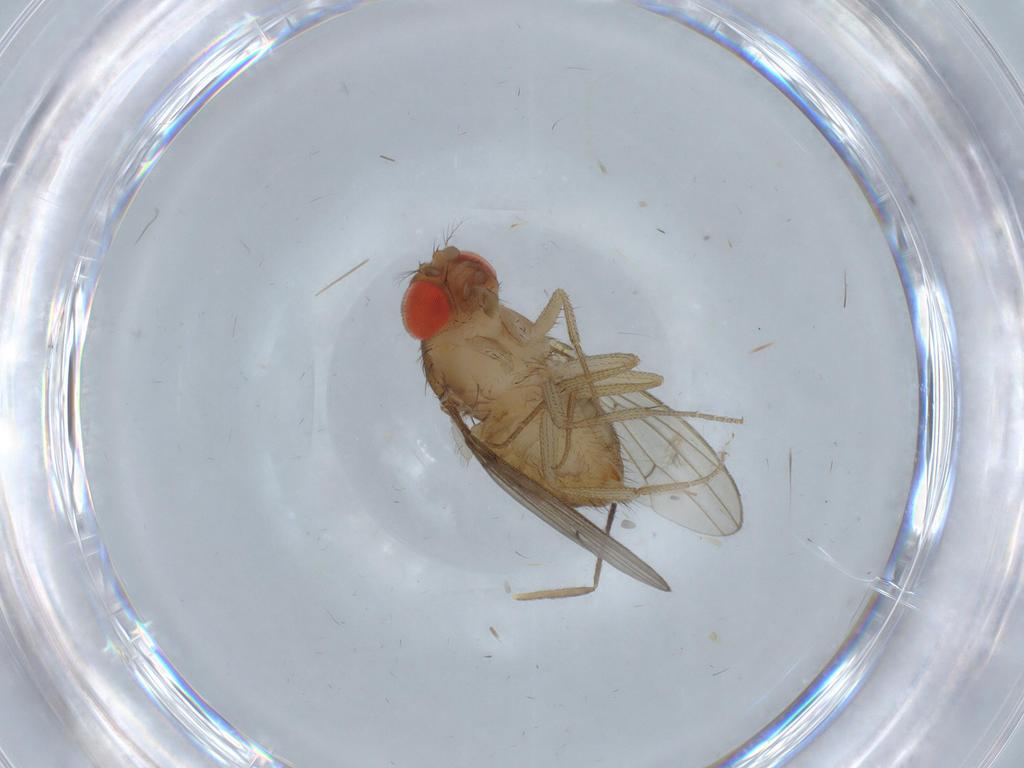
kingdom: Animalia
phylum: Arthropoda
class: Insecta
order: Diptera
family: Drosophilidae
